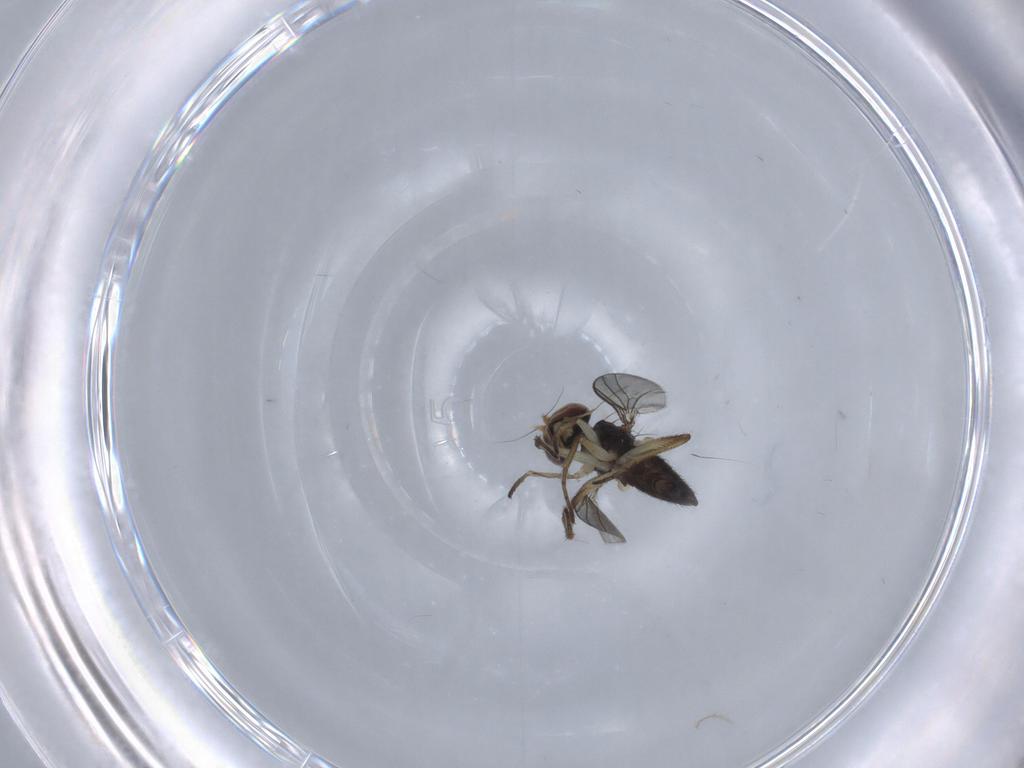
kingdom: Animalia
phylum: Arthropoda
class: Insecta
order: Diptera
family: Dolichopodidae
